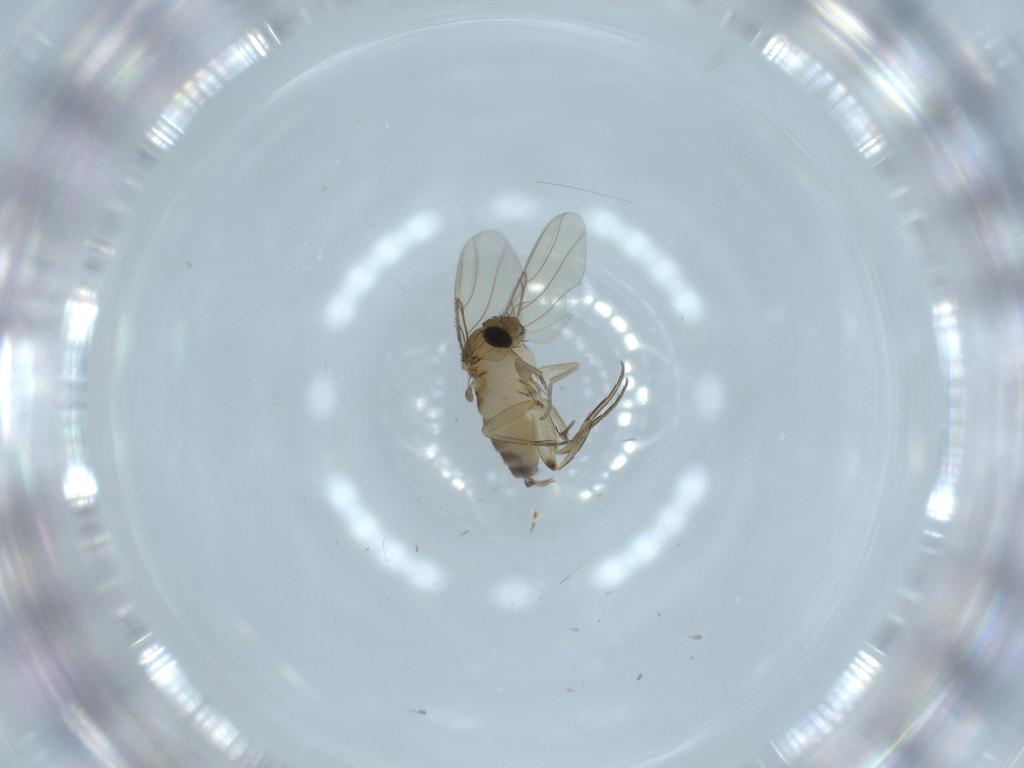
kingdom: Animalia
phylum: Arthropoda
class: Insecta
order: Diptera
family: Phoridae
